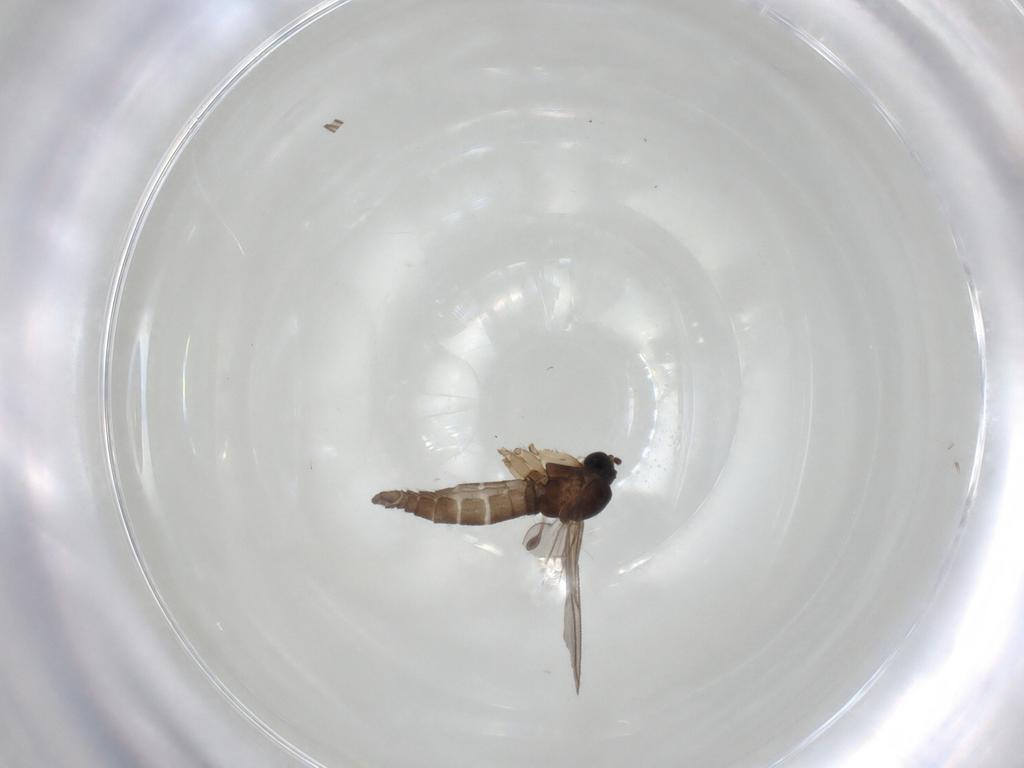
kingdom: Animalia
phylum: Arthropoda
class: Insecta
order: Diptera
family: Sciaridae
